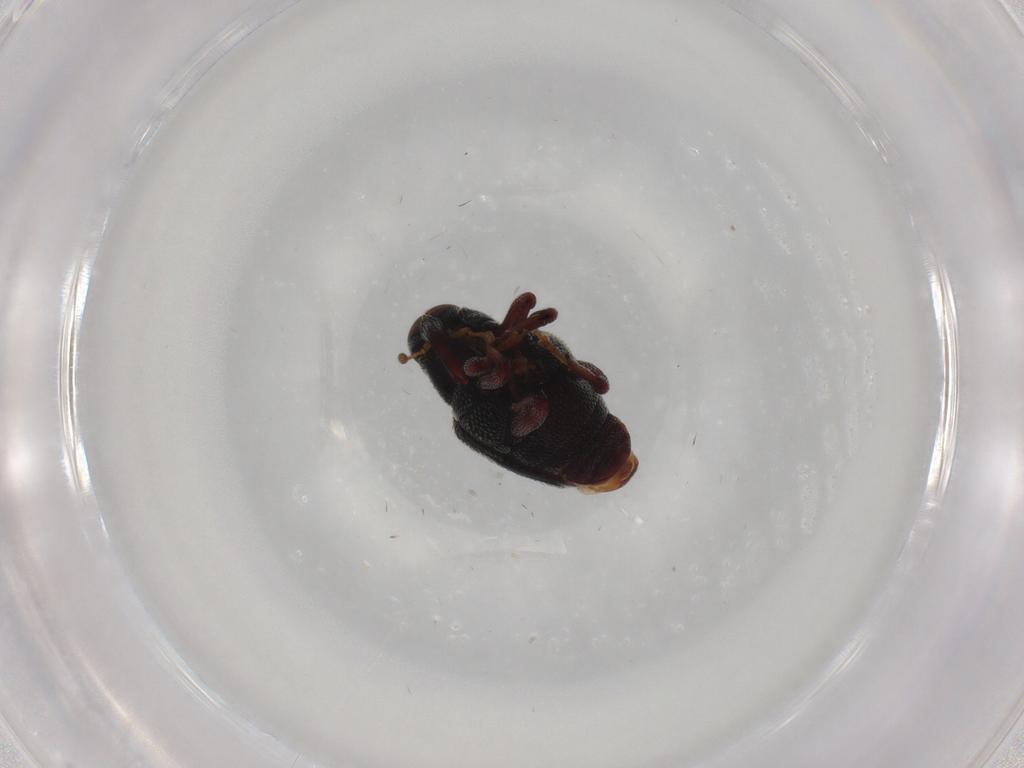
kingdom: Animalia
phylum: Arthropoda
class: Insecta
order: Coleoptera
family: Curculionidae
